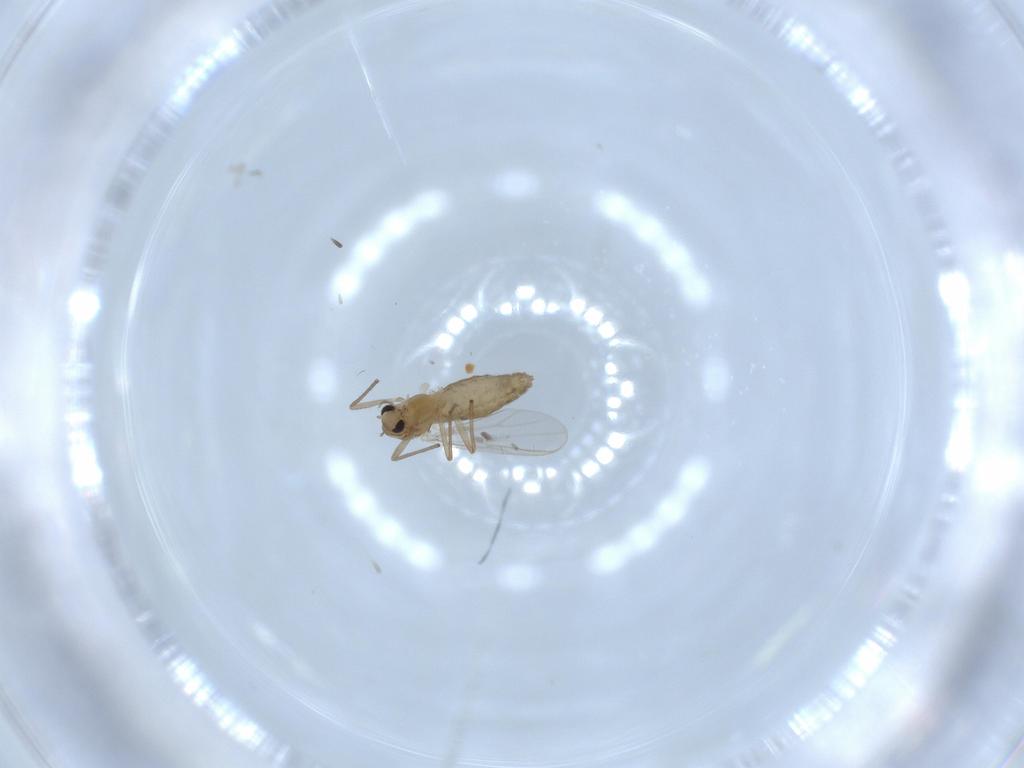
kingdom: Animalia
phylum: Arthropoda
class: Insecta
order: Diptera
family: Chironomidae
